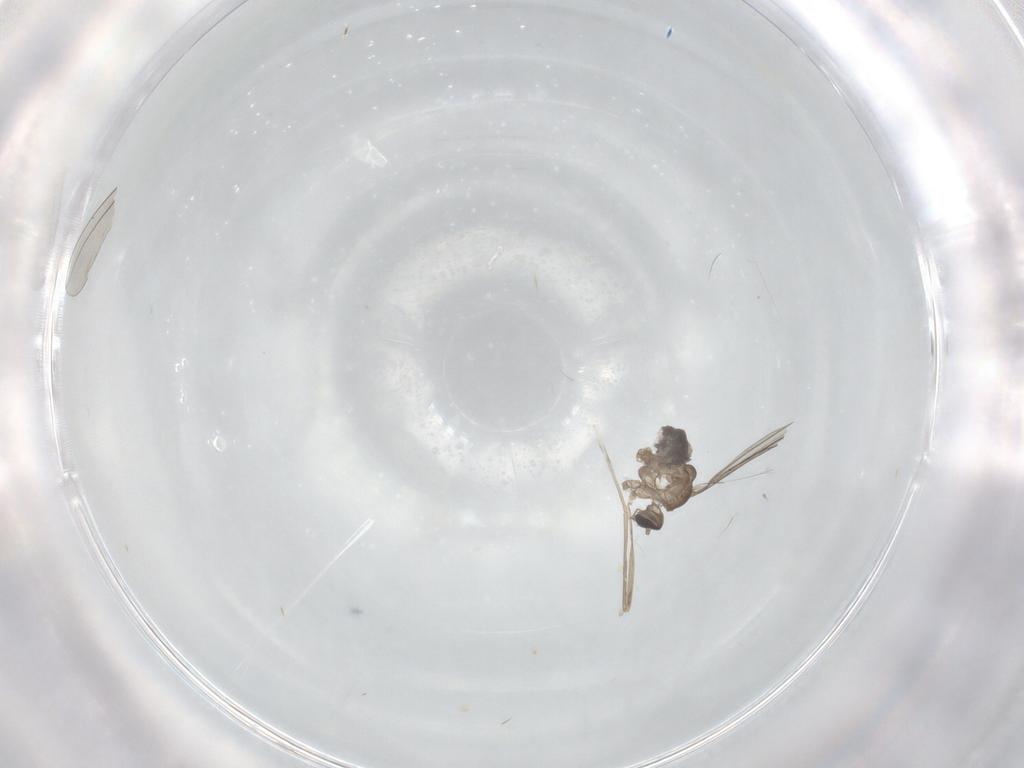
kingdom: Animalia
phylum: Arthropoda
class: Insecta
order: Diptera
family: Cecidomyiidae
